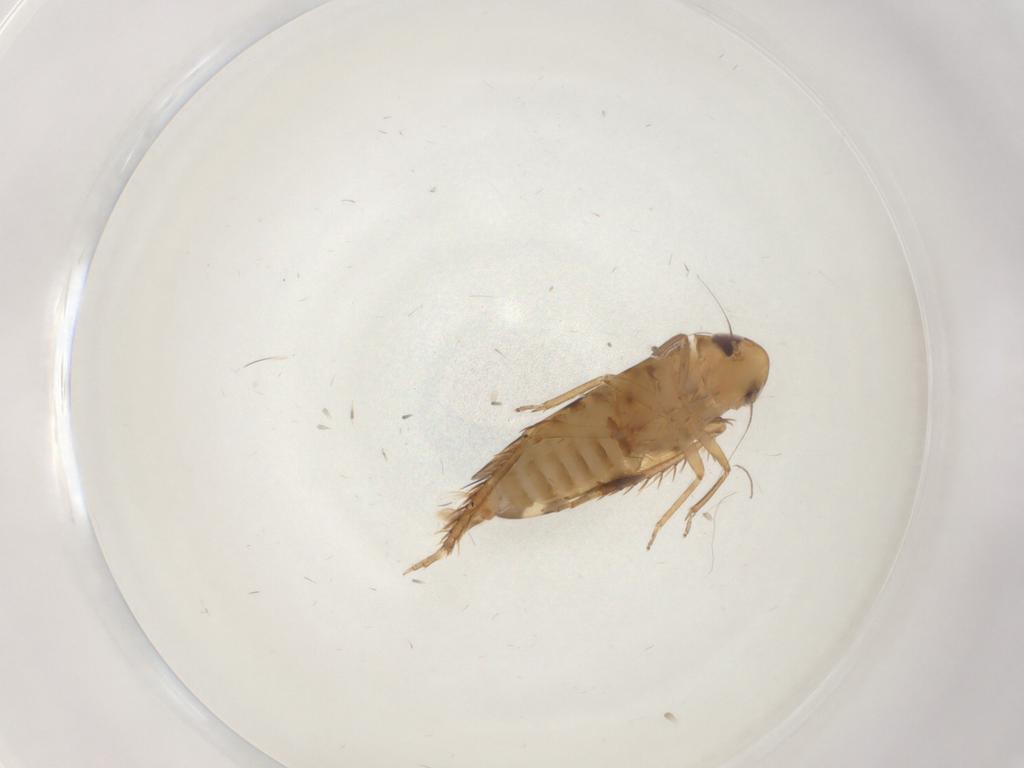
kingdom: Animalia
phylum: Arthropoda
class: Insecta
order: Hemiptera
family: Cicadellidae
